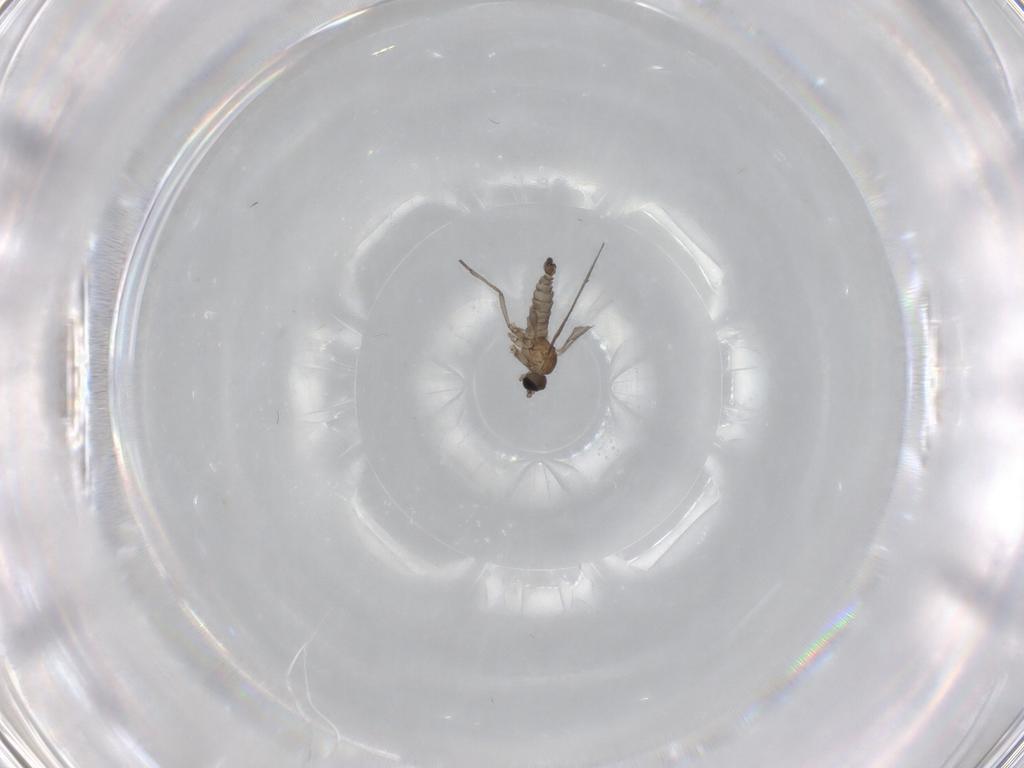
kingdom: Animalia
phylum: Arthropoda
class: Insecta
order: Diptera
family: Sciaridae
